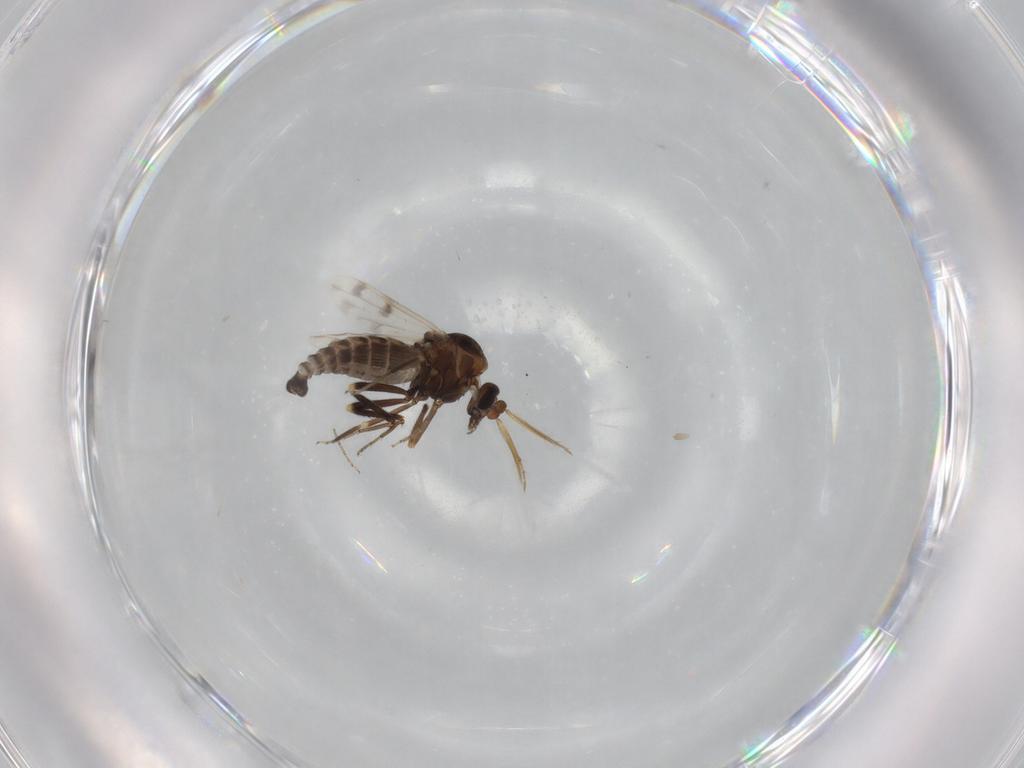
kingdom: Animalia
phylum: Arthropoda
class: Insecta
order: Diptera
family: Ceratopogonidae
